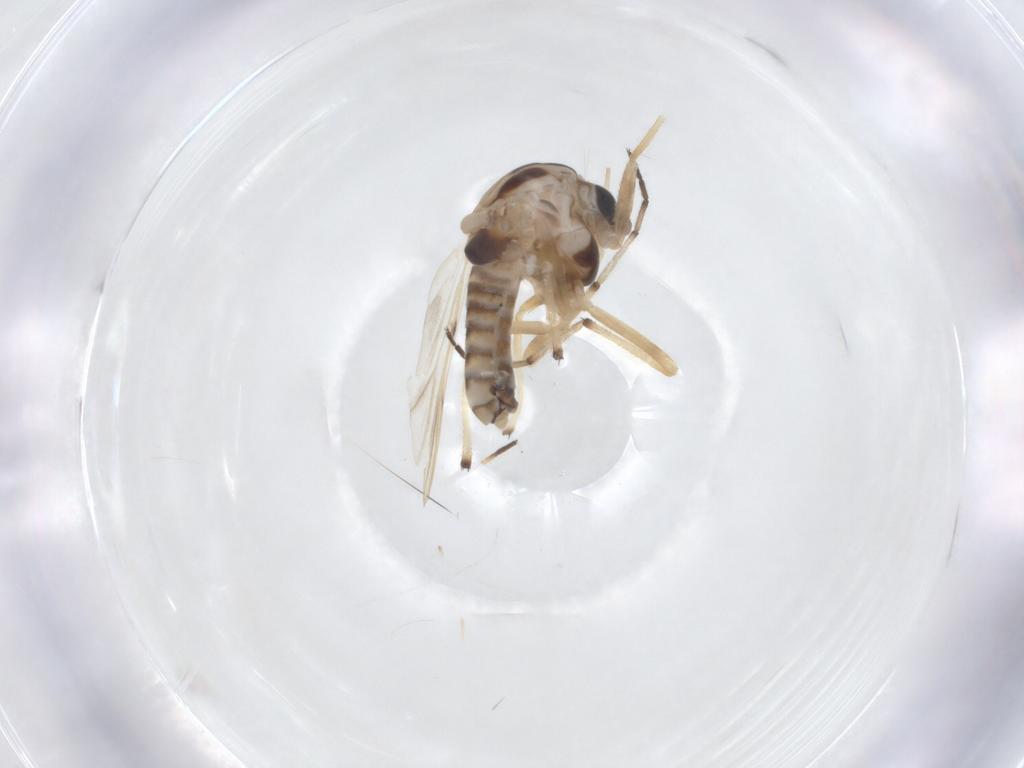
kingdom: Animalia
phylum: Arthropoda
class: Insecta
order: Diptera
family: Chironomidae
